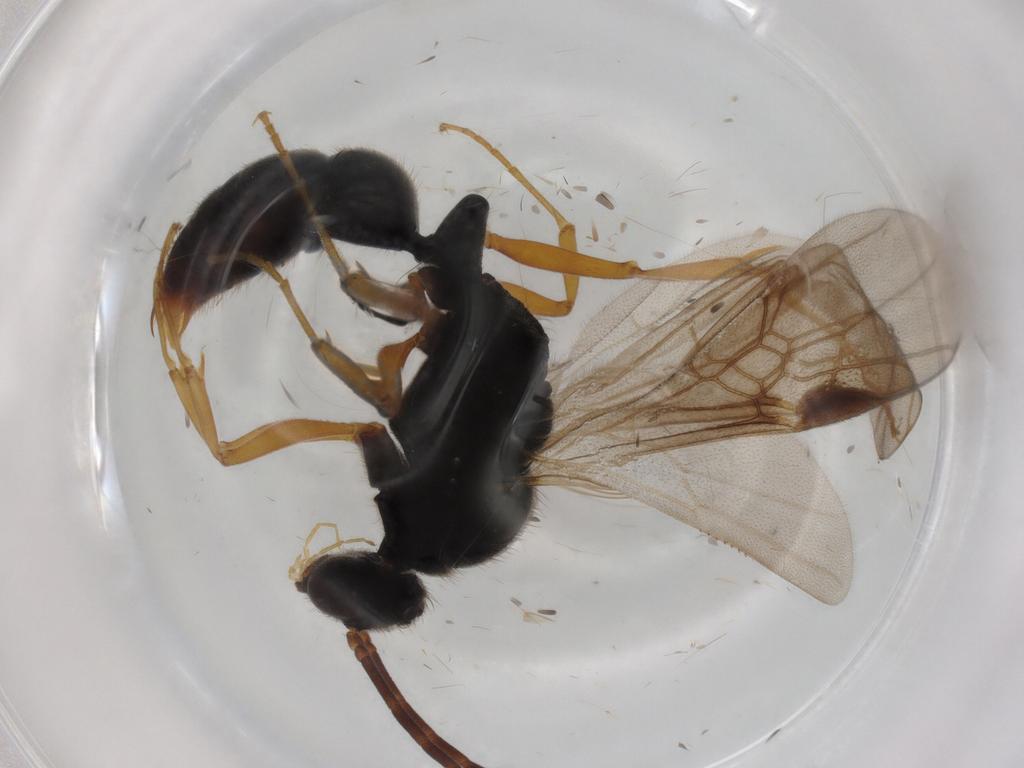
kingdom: Animalia
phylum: Arthropoda
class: Insecta
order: Hymenoptera
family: Formicidae
